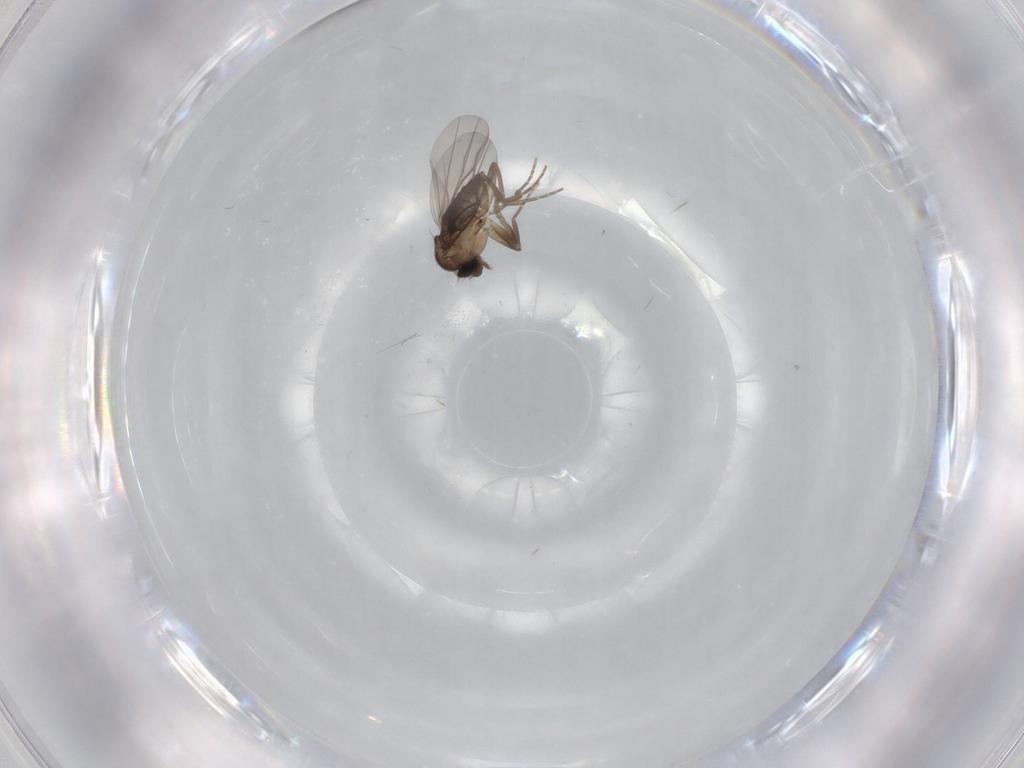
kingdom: Animalia
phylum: Arthropoda
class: Insecta
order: Diptera
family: Phoridae
